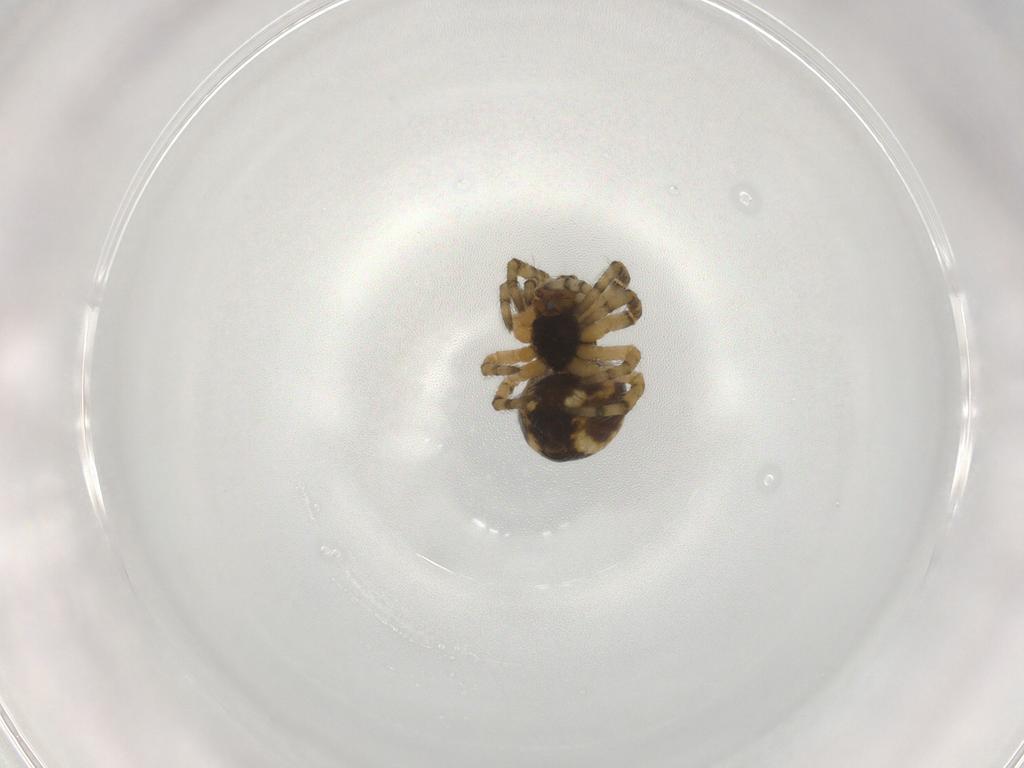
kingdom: Animalia
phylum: Arthropoda
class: Arachnida
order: Araneae
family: Araneidae
